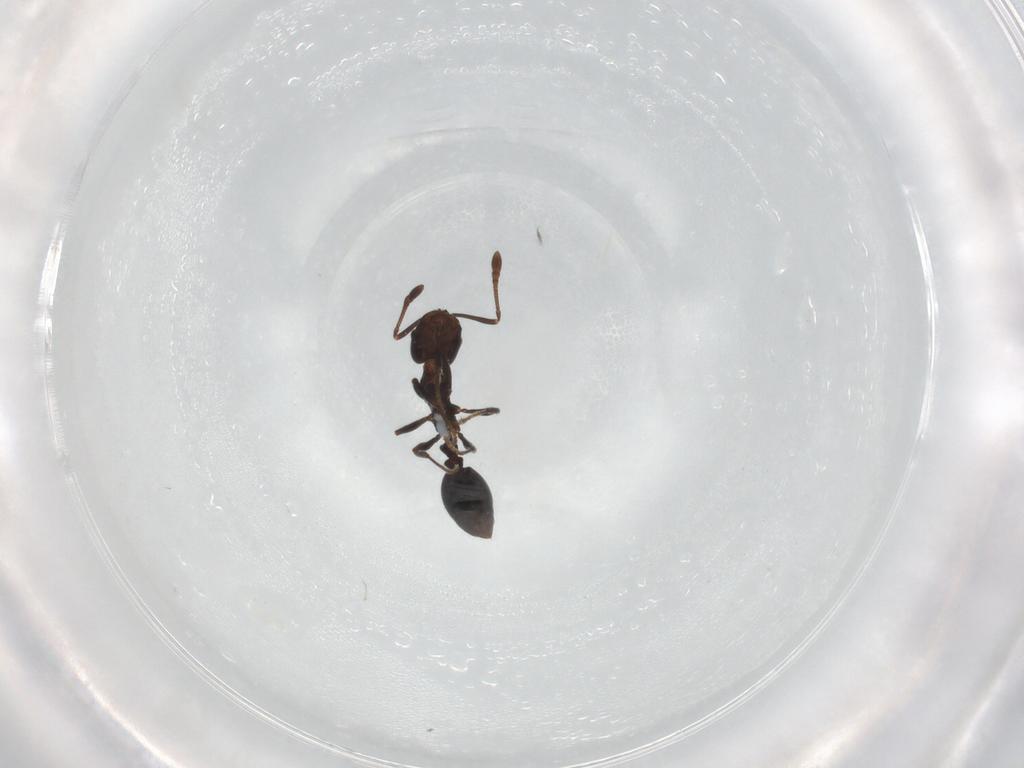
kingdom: Animalia
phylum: Arthropoda
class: Insecta
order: Hymenoptera
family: Formicidae
